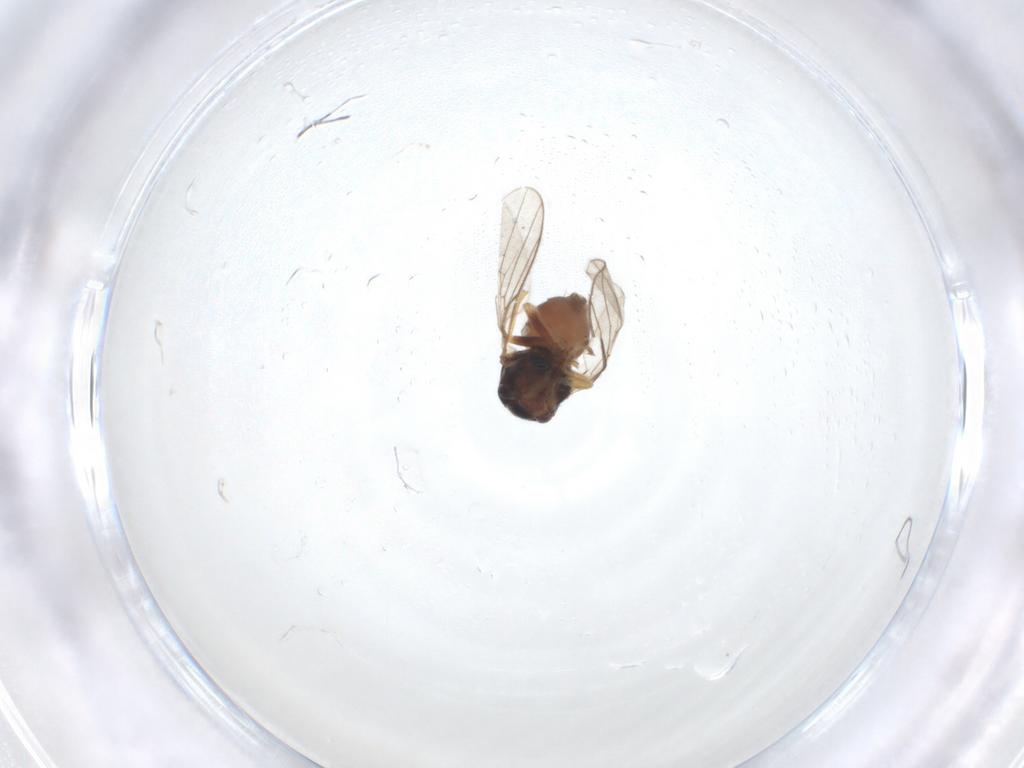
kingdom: Animalia
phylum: Arthropoda
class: Insecta
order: Diptera
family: Chloropidae
